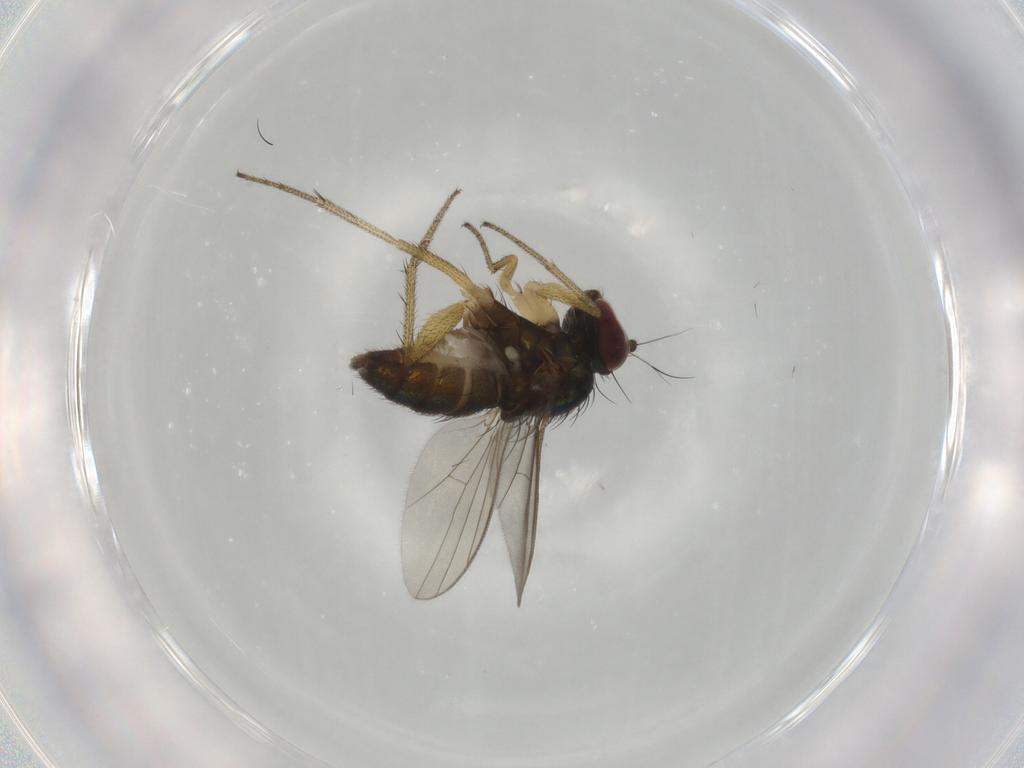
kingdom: Animalia
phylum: Arthropoda
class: Insecta
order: Diptera
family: Dolichopodidae
